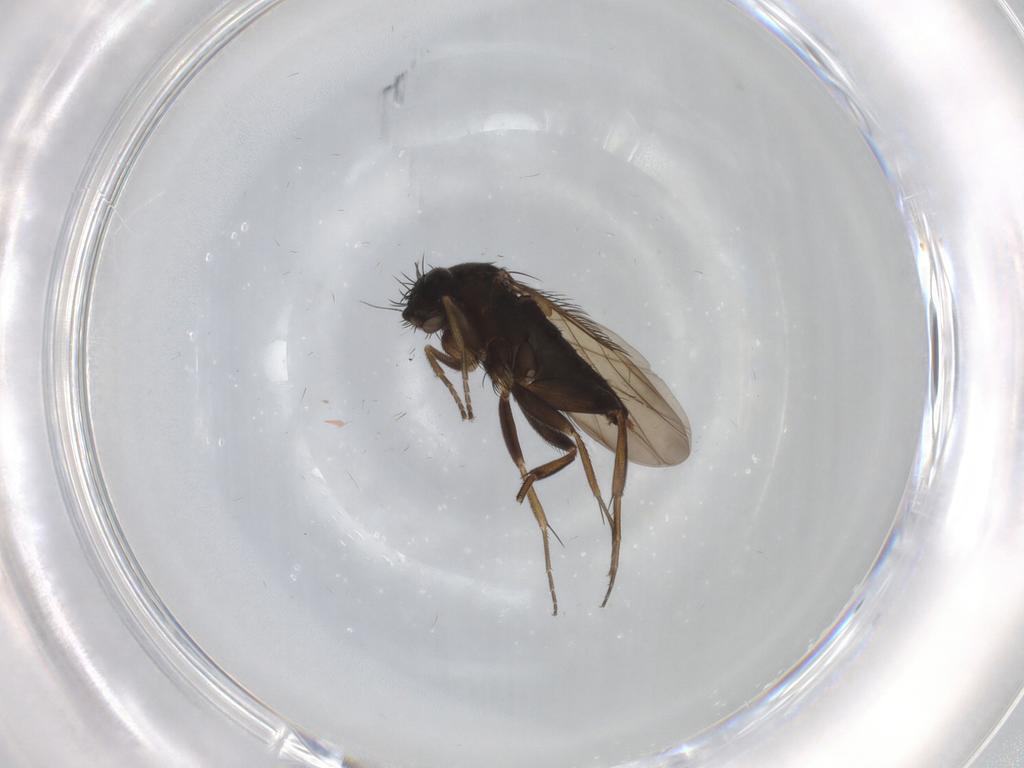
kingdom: Animalia
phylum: Arthropoda
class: Insecta
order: Diptera
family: Phoridae
